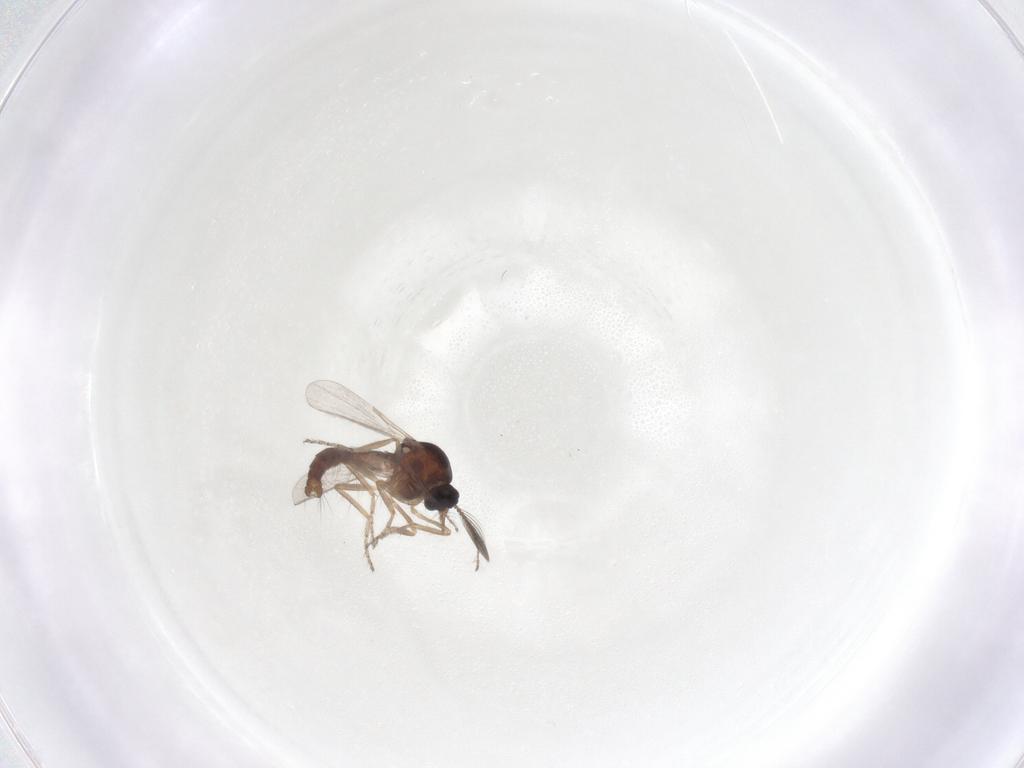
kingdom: Animalia
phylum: Arthropoda
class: Insecta
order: Diptera
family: Ceratopogonidae
